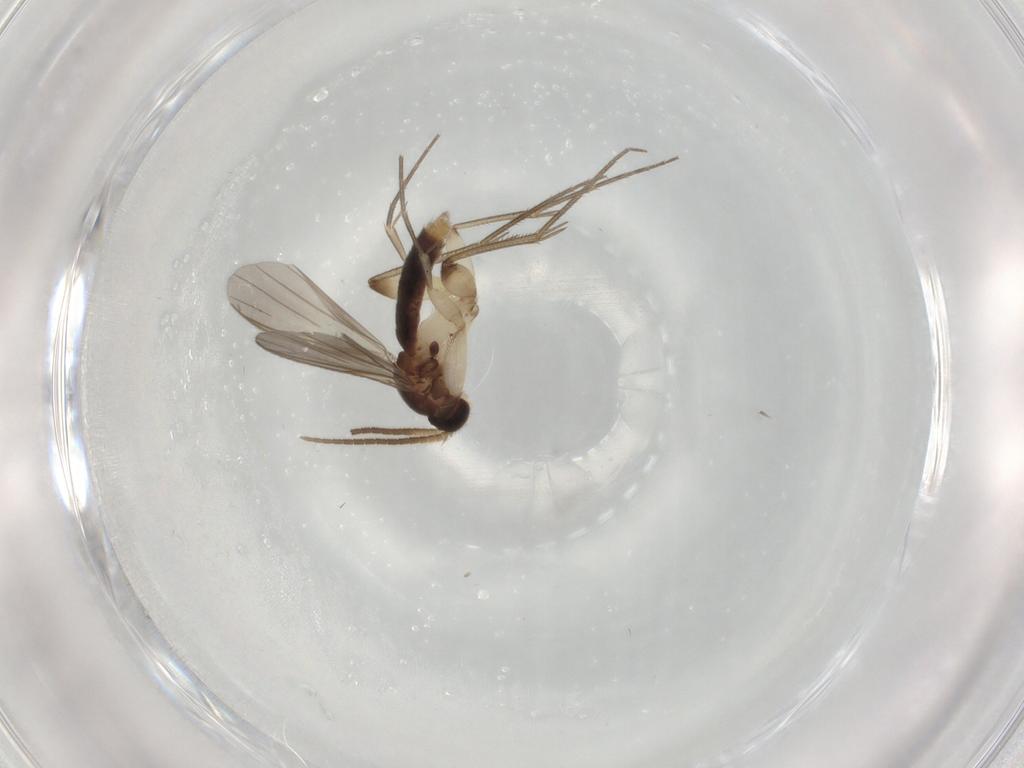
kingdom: Animalia
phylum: Arthropoda
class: Insecta
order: Diptera
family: Mycetophilidae
